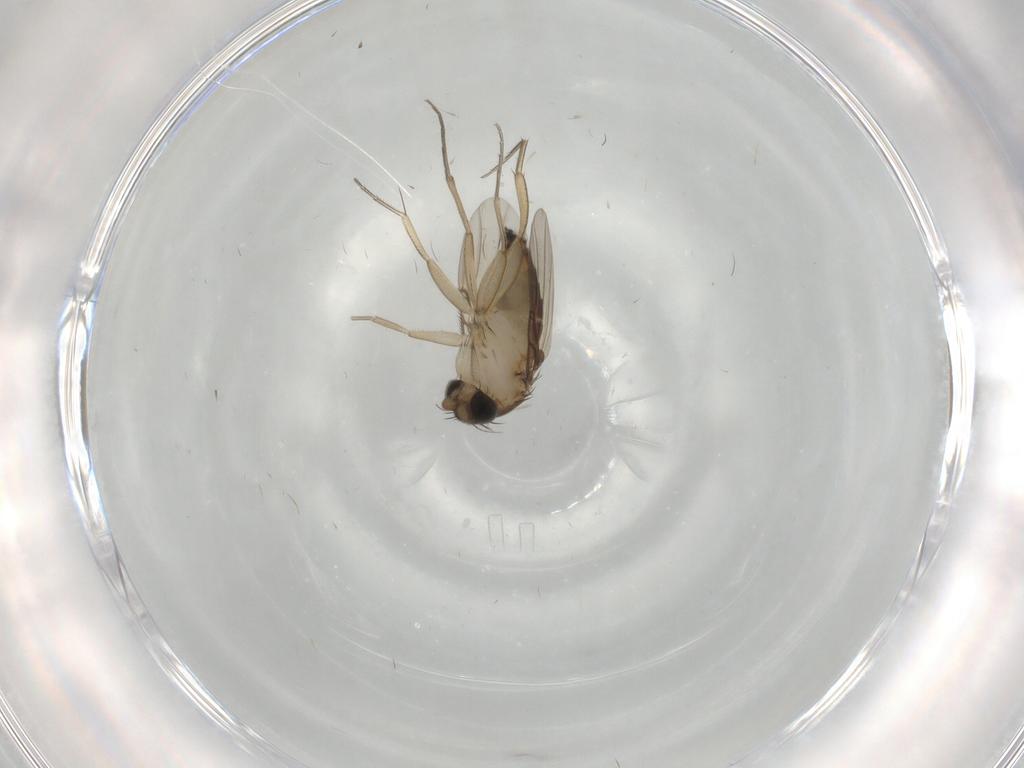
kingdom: Animalia
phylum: Arthropoda
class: Insecta
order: Diptera
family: Phoridae
